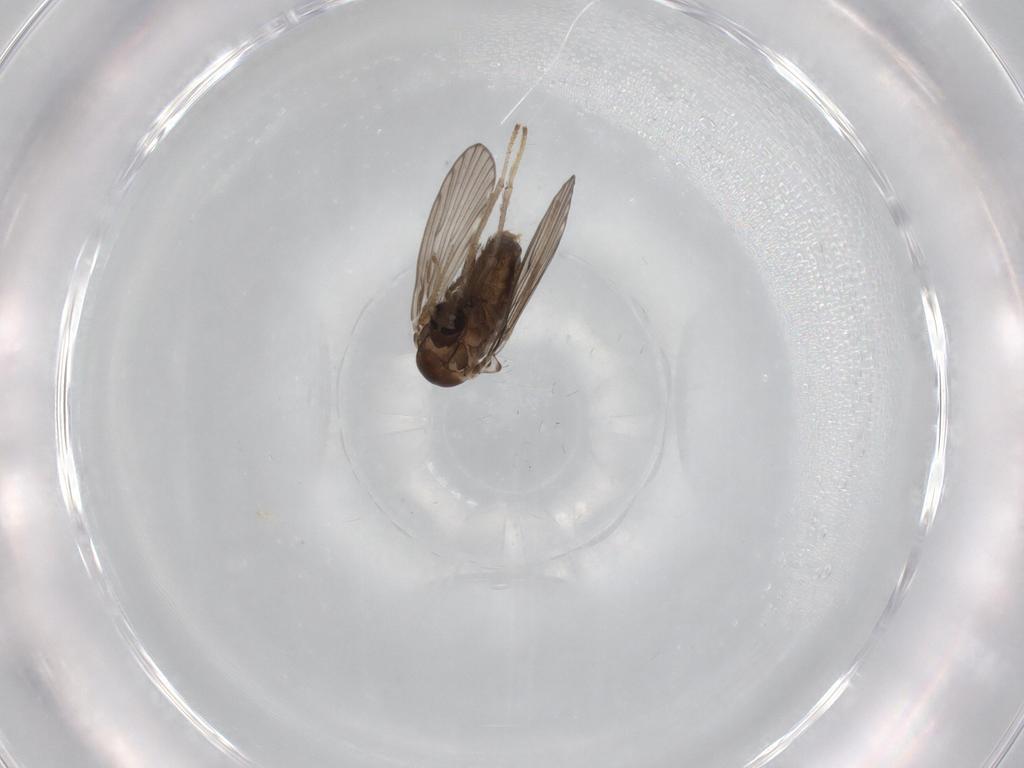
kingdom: Animalia
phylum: Arthropoda
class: Insecta
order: Diptera
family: Psychodidae
